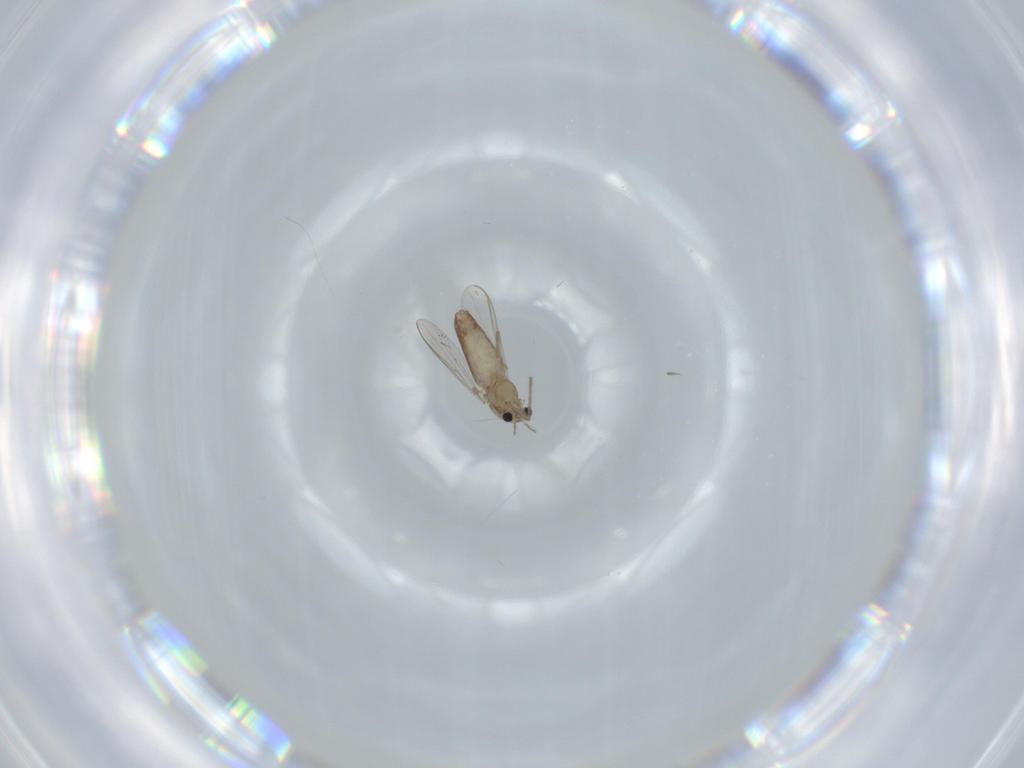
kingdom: Animalia
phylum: Arthropoda
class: Insecta
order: Diptera
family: Chironomidae
